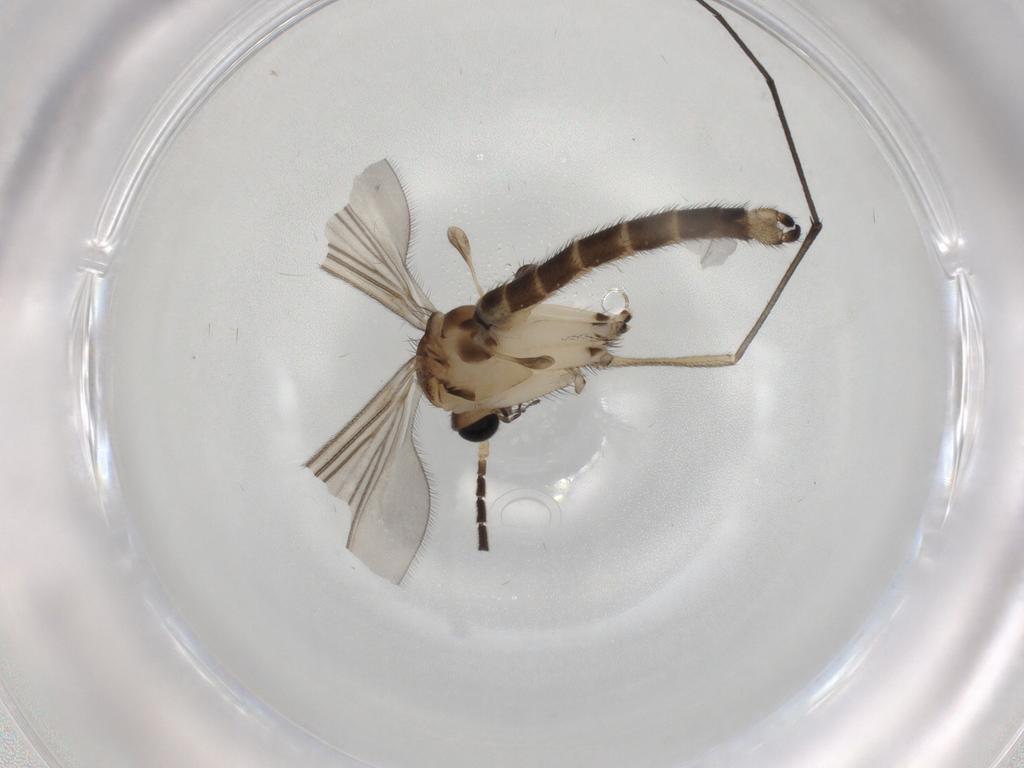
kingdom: Animalia
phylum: Arthropoda
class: Insecta
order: Diptera
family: Sciaridae
